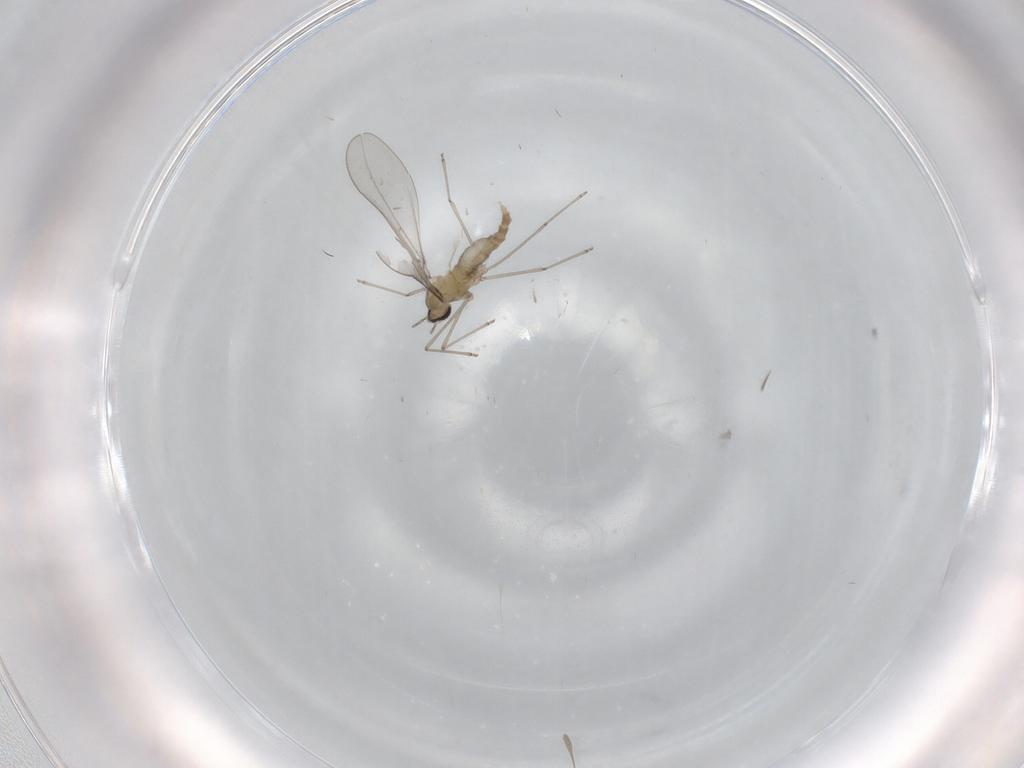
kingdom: Animalia
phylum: Arthropoda
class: Insecta
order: Diptera
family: Cecidomyiidae
